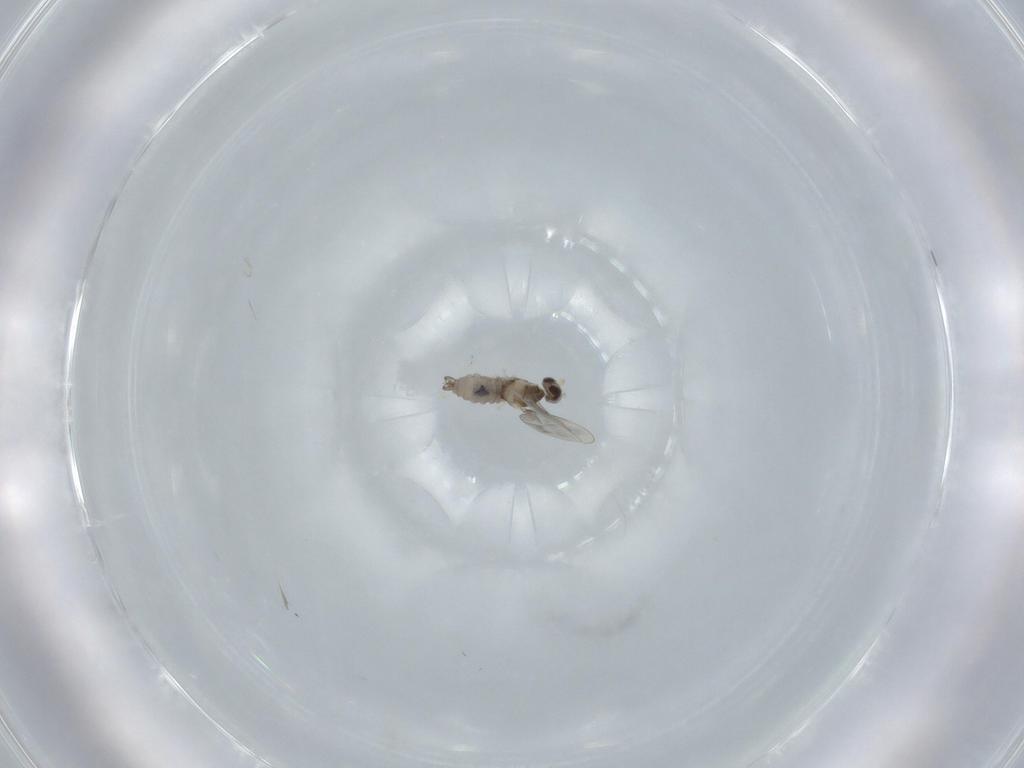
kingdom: Animalia
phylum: Arthropoda
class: Insecta
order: Diptera
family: Cecidomyiidae
